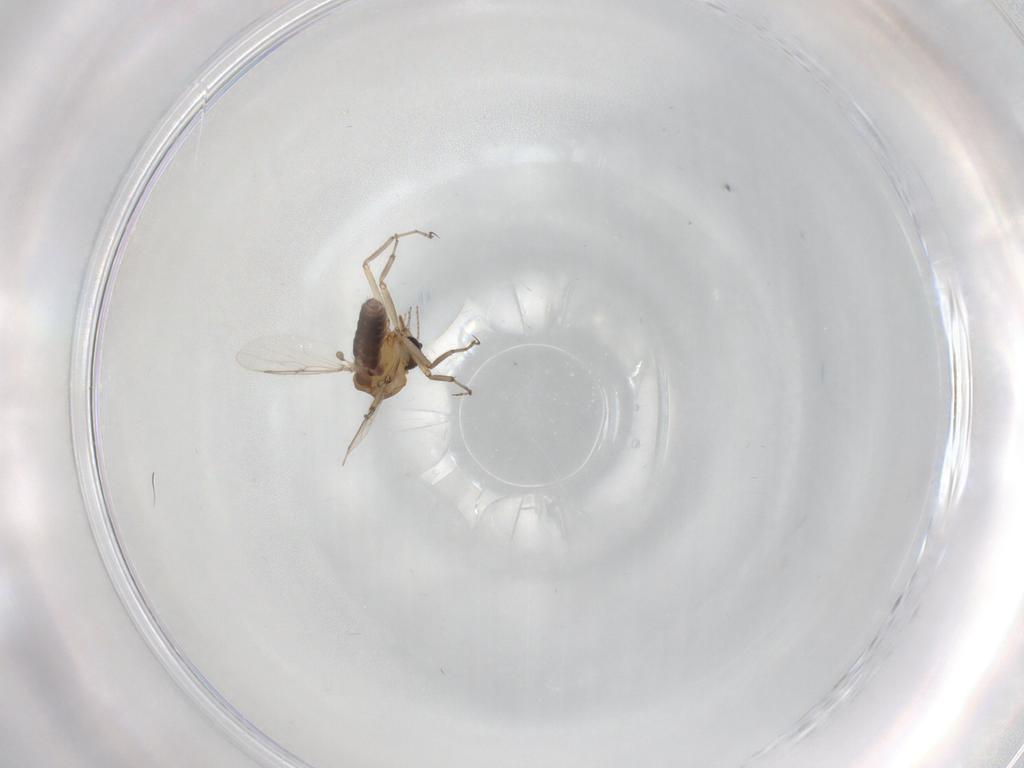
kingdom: Animalia
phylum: Arthropoda
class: Insecta
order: Diptera
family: Ceratopogonidae
